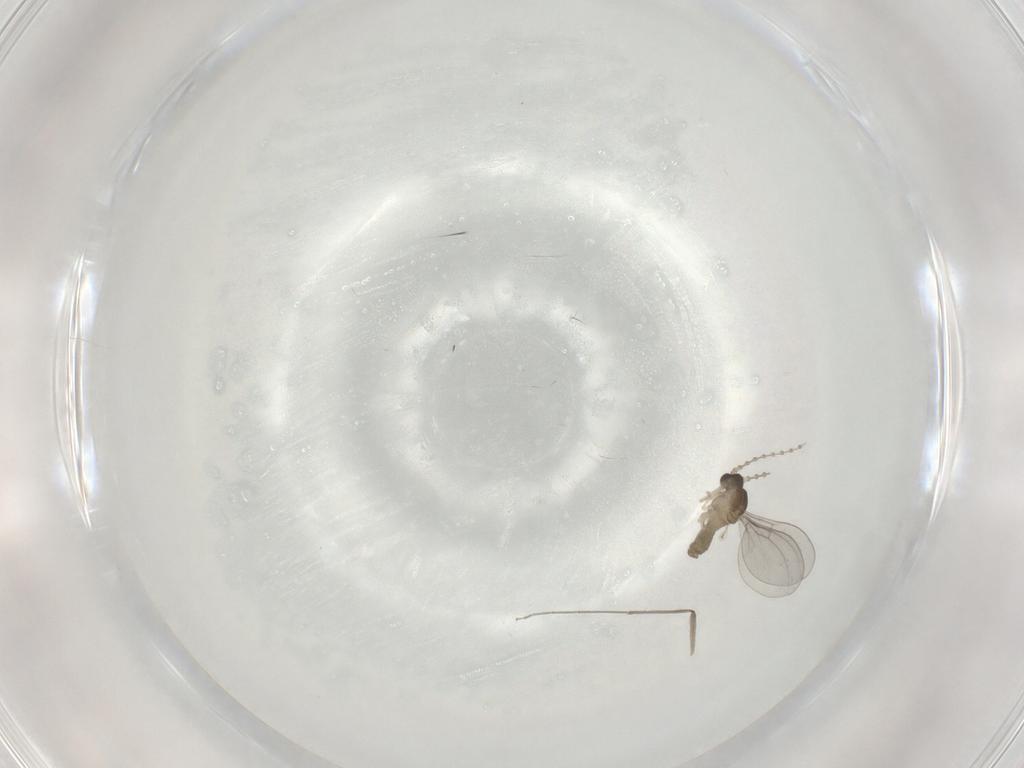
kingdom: Animalia
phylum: Arthropoda
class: Insecta
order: Diptera
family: Cecidomyiidae
